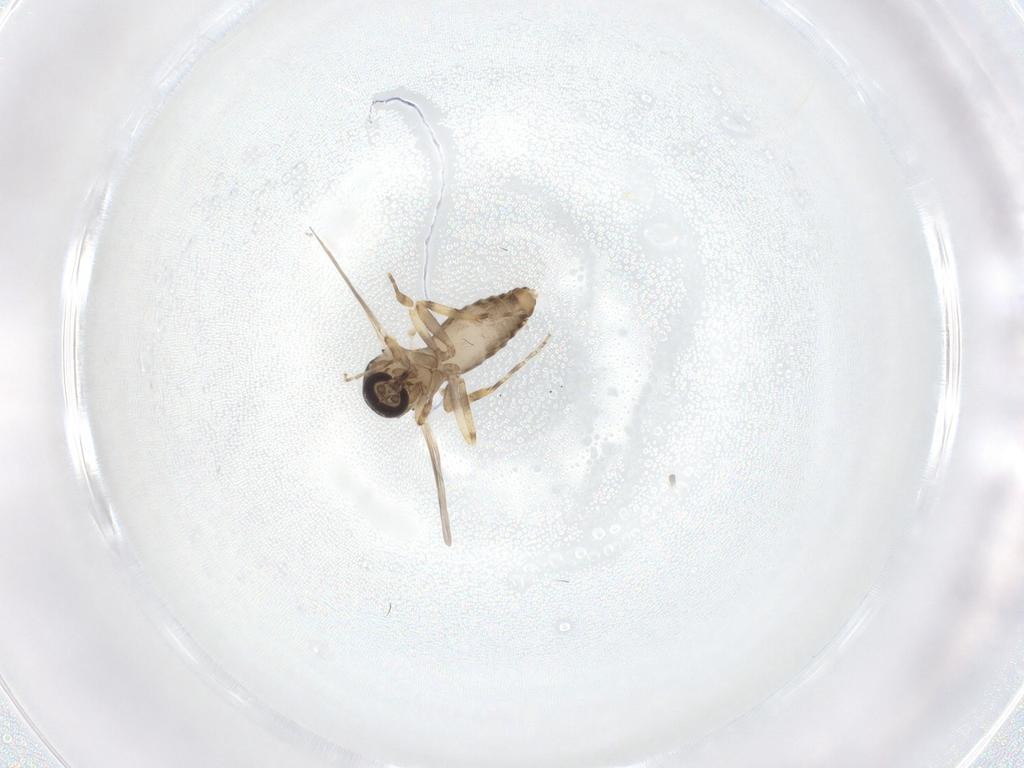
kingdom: Animalia
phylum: Arthropoda
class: Insecta
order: Diptera
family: Ceratopogonidae
